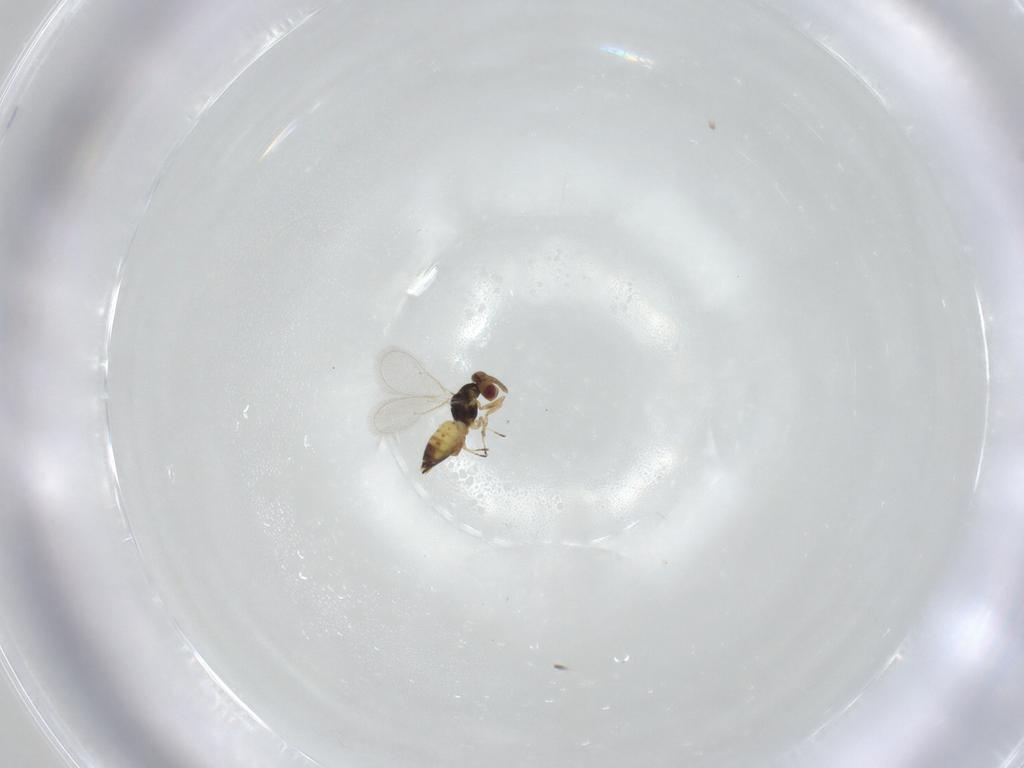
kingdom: Animalia
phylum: Arthropoda
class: Insecta
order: Hymenoptera
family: Eulophidae
